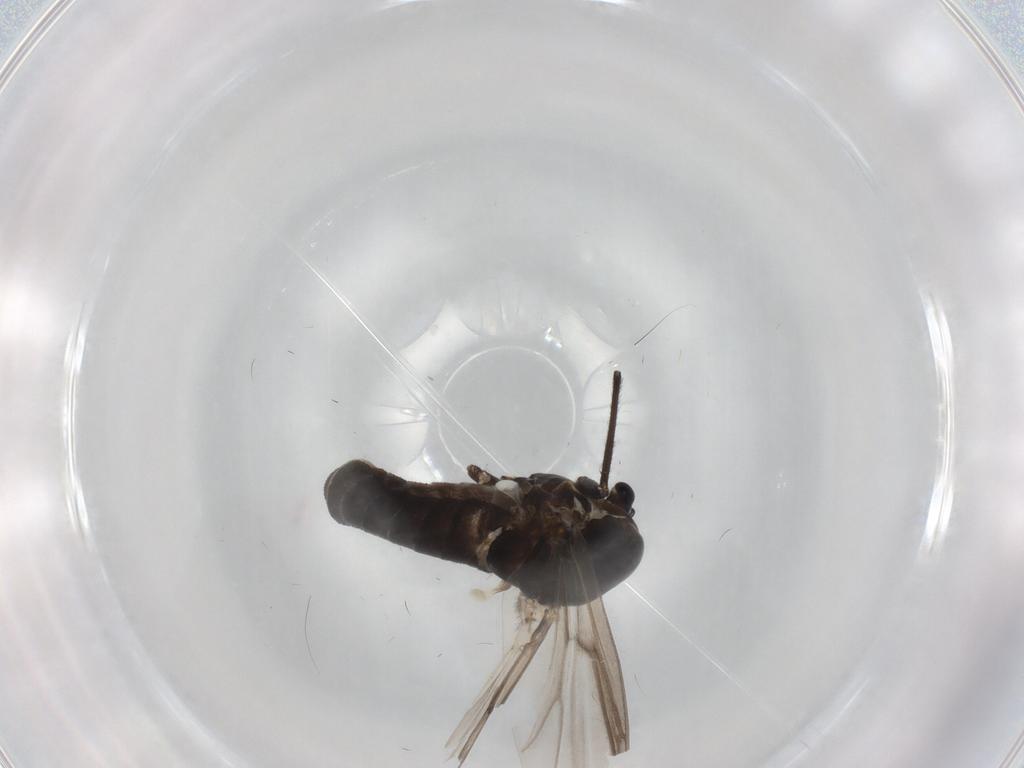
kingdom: Animalia
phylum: Arthropoda
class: Insecta
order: Diptera
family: Chironomidae
